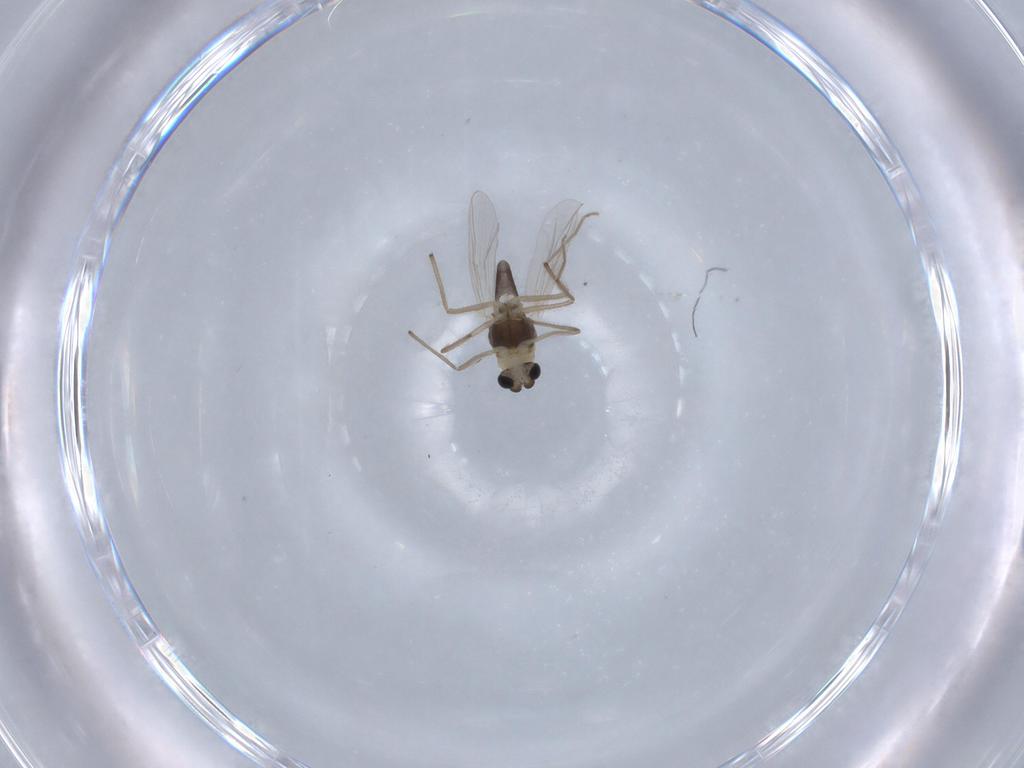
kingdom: Animalia
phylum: Arthropoda
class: Insecta
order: Diptera
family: Chironomidae
